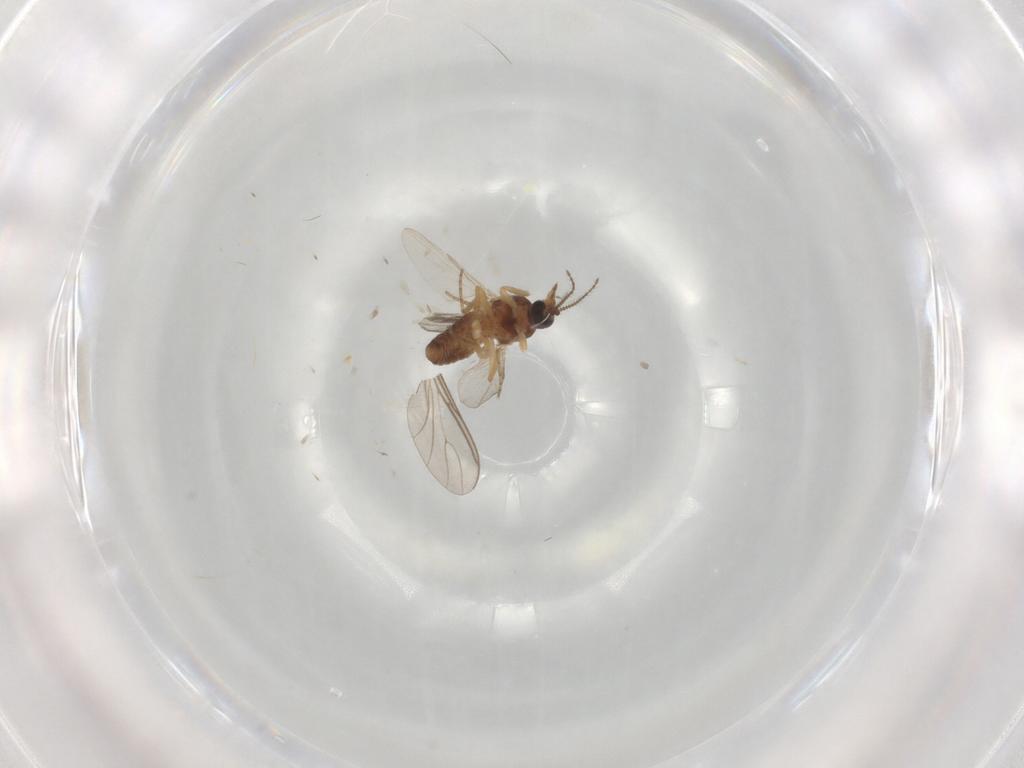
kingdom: Animalia
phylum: Arthropoda
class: Insecta
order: Diptera
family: Ceratopogonidae
